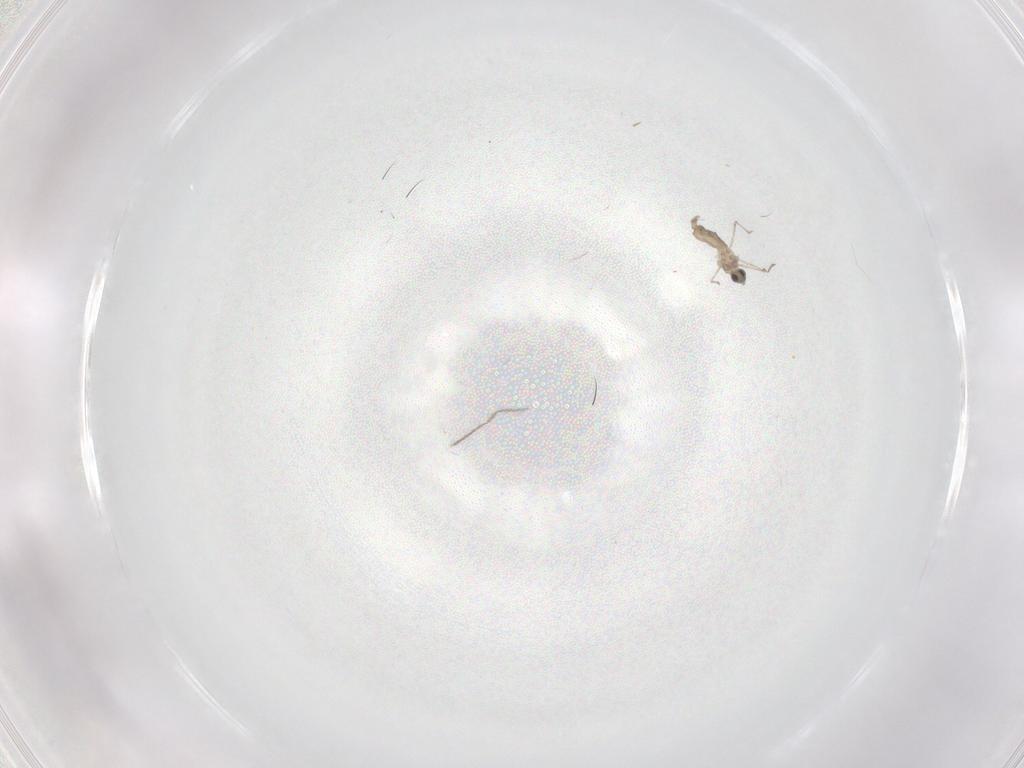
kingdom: Animalia
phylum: Arthropoda
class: Insecta
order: Diptera
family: Cecidomyiidae
